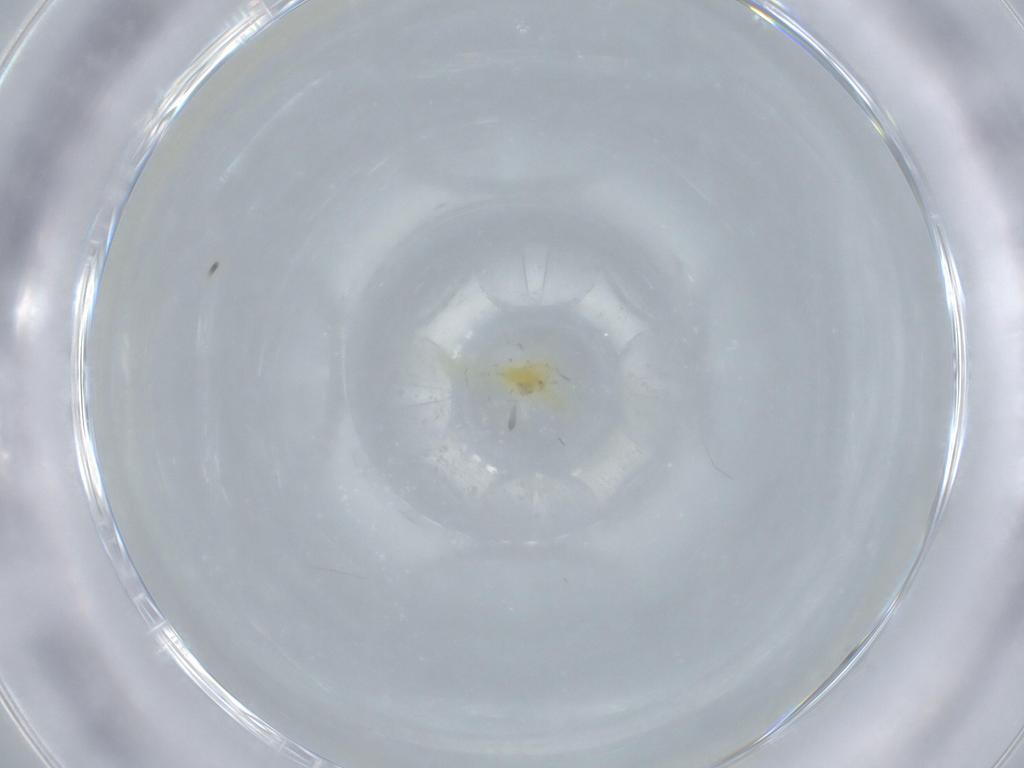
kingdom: Animalia
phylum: Arthropoda
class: Insecta
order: Hemiptera
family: Aleyrodidae
